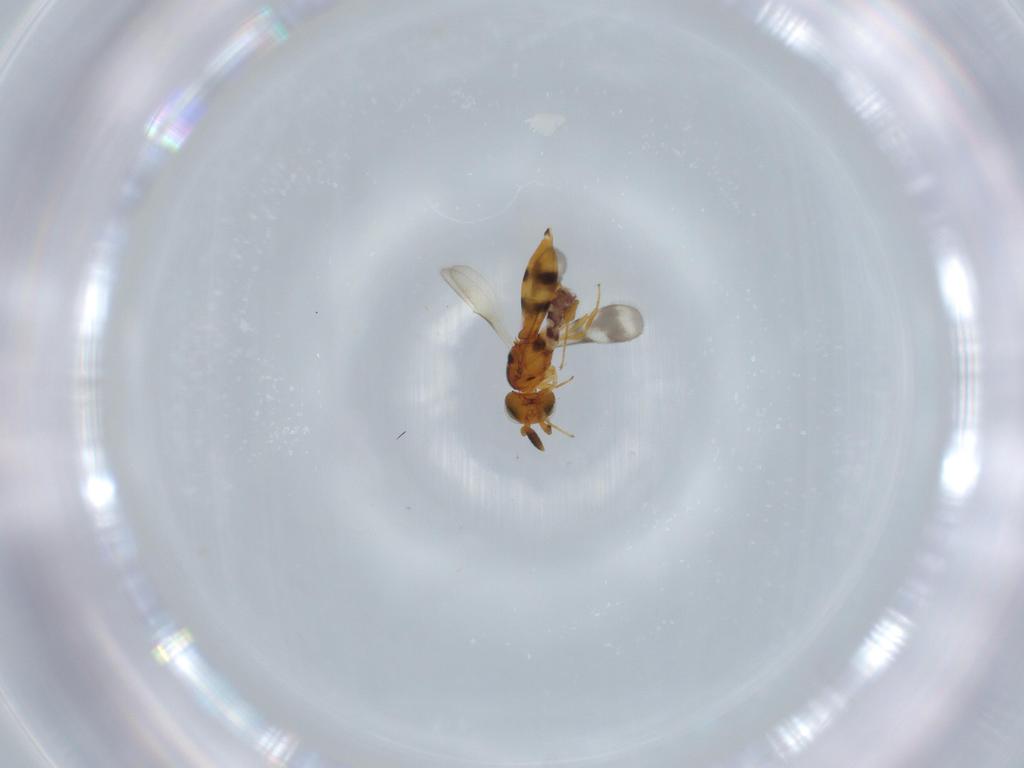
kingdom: Animalia
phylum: Arthropoda
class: Insecta
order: Hymenoptera
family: Scelionidae
